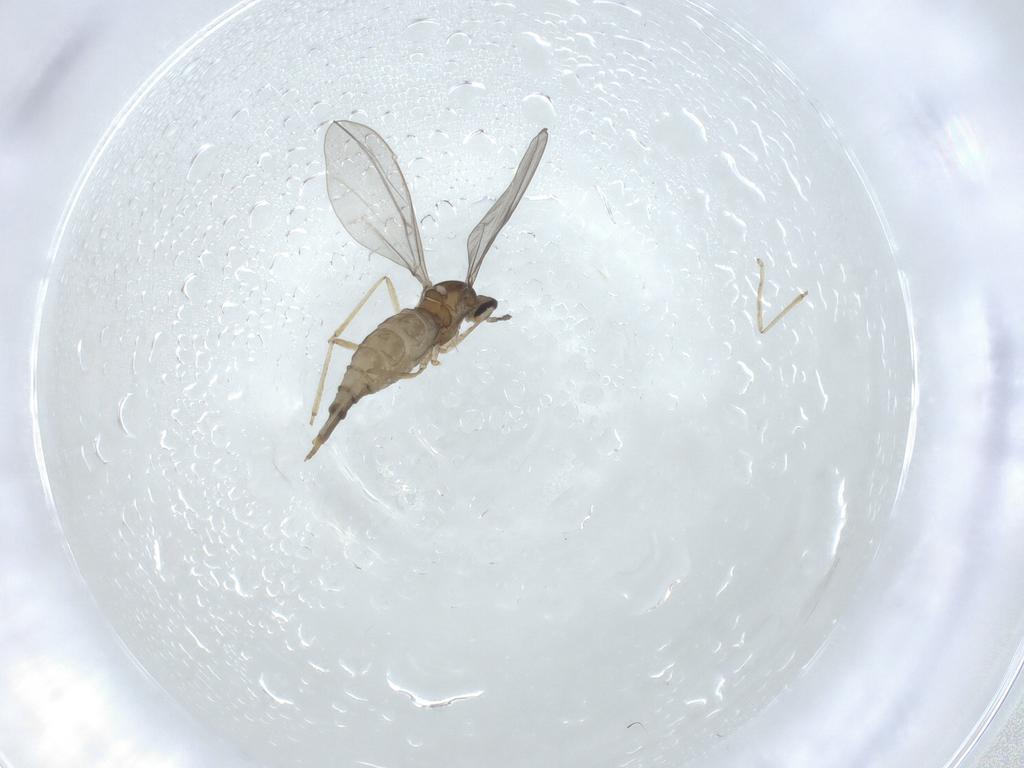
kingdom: Animalia
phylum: Arthropoda
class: Insecta
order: Diptera
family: Cecidomyiidae
